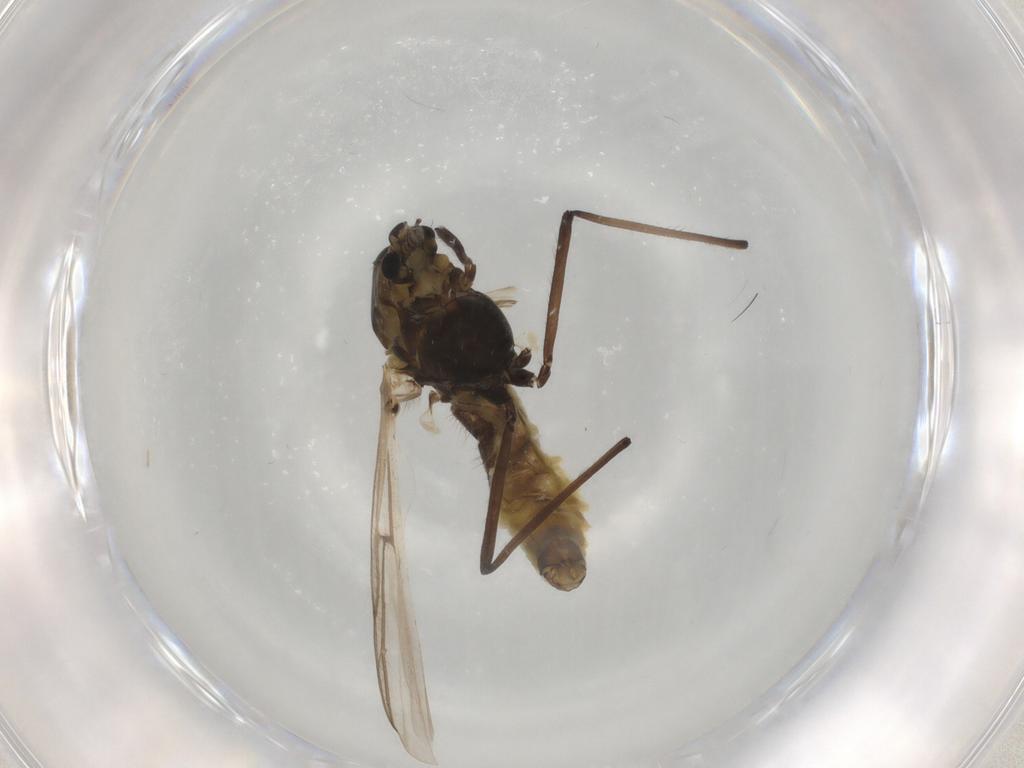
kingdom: Animalia
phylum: Arthropoda
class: Insecta
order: Diptera
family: Chironomidae
